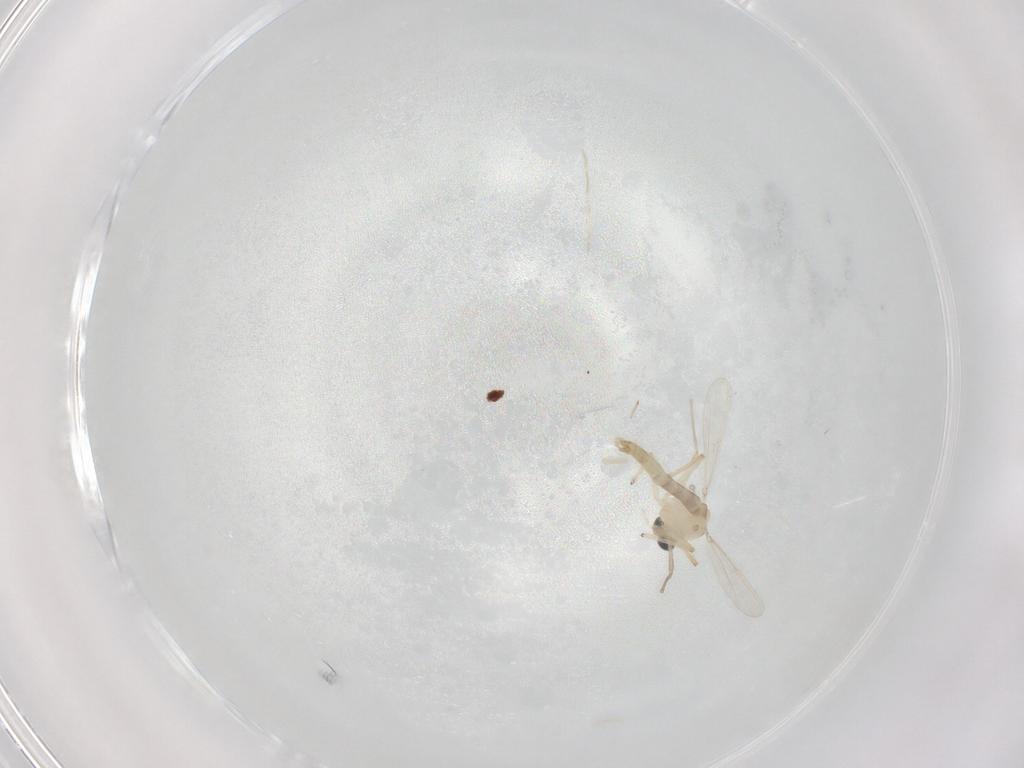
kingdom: Animalia
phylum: Arthropoda
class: Insecta
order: Diptera
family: Chironomidae
